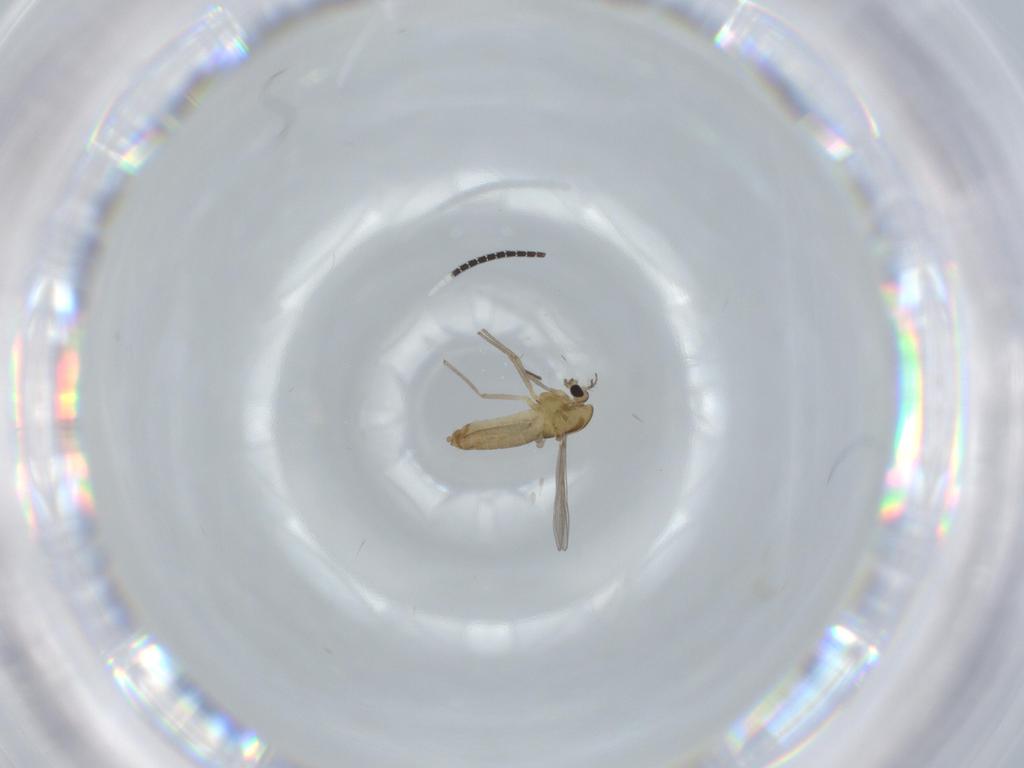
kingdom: Animalia
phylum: Arthropoda
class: Insecta
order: Diptera
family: Chironomidae
